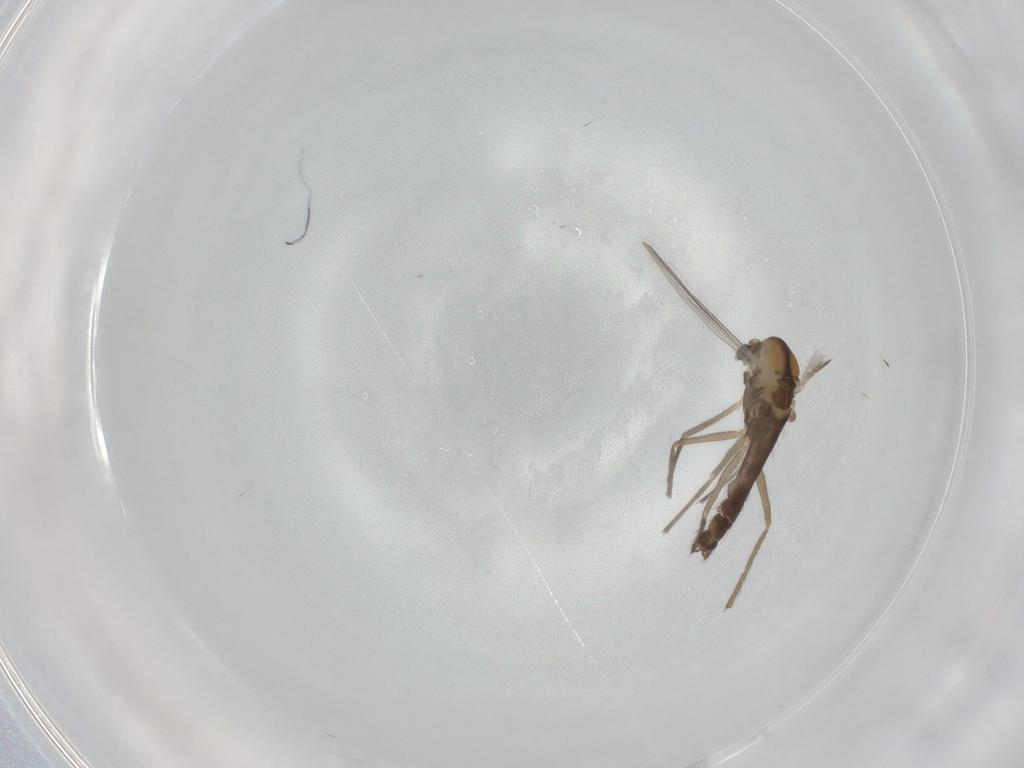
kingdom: Animalia
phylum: Arthropoda
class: Insecta
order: Diptera
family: Chironomidae
